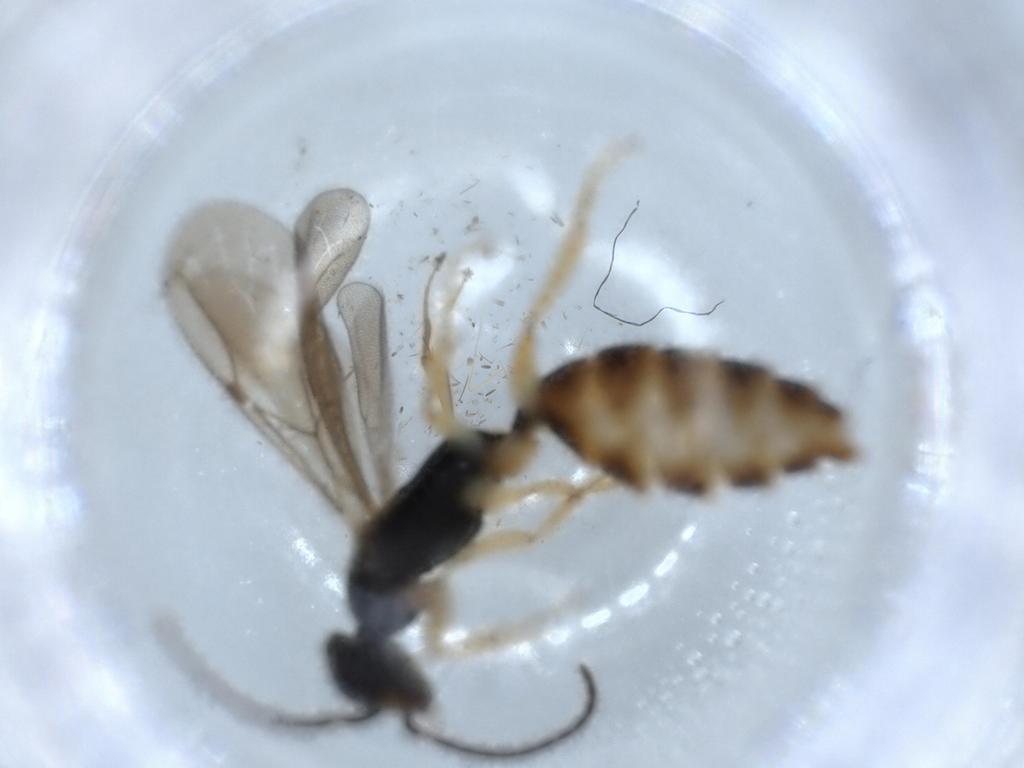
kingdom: Animalia
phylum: Arthropoda
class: Insecta
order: Hymenoptera
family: Bethylidae
